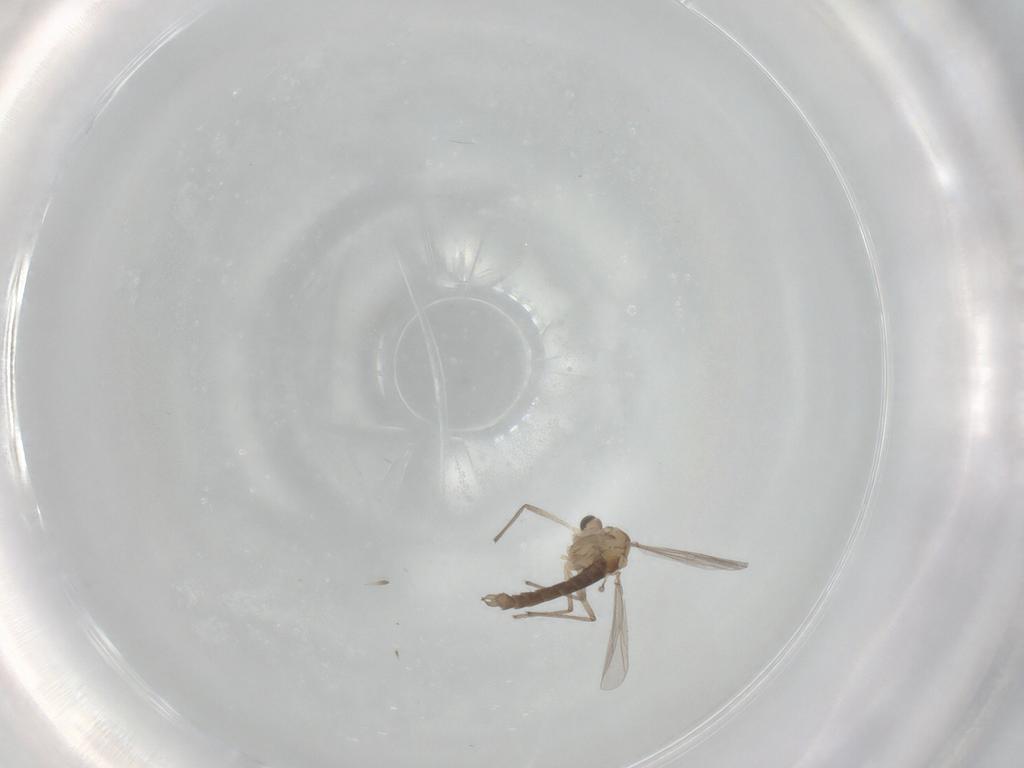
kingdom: Animalia
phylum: Arthropoda
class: Insecta
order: Diptera
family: Chironomidae
